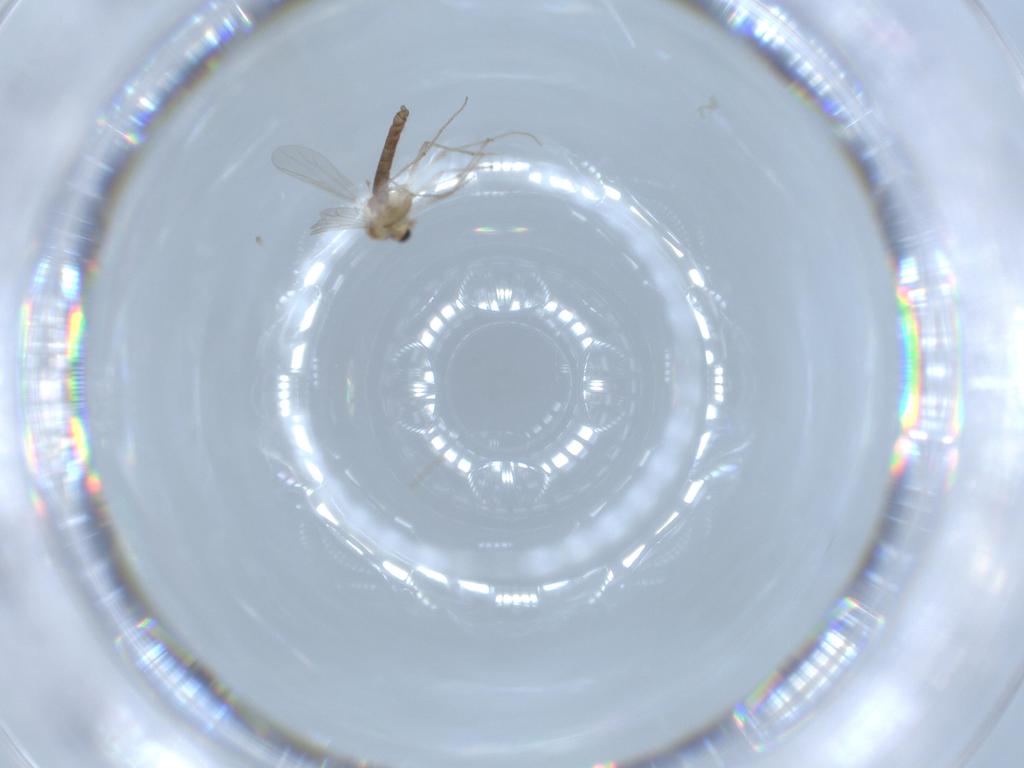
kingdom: Animalia
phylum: Arthropoda
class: Insecta
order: Diptera
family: Chironomidae
